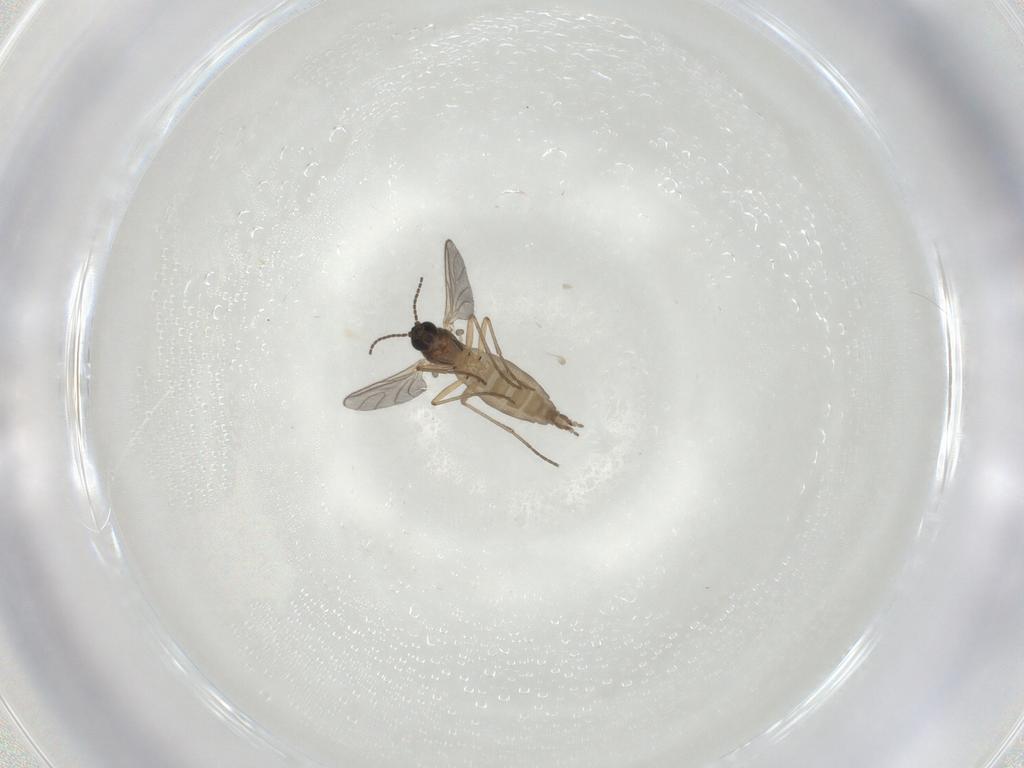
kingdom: Animalia
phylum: Arthropoda
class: Insecta
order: Diptera
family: Sciaridae
